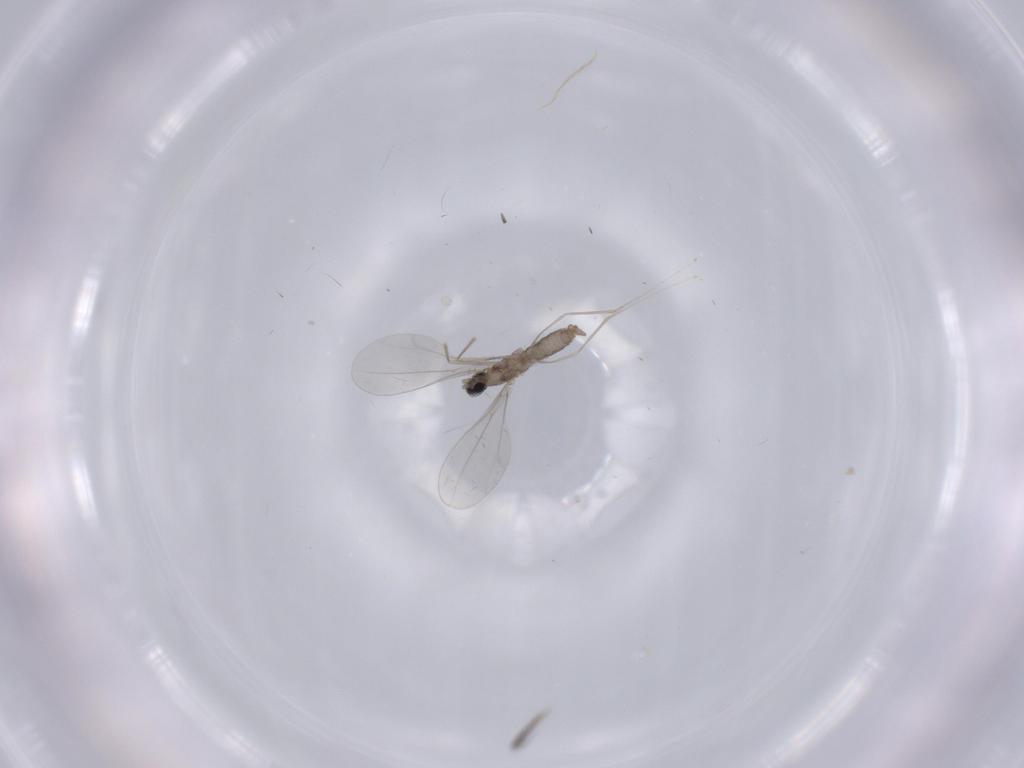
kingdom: Animalia
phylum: Arthropoda
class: Insecta
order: Diptera
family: Cecidomyiidae
